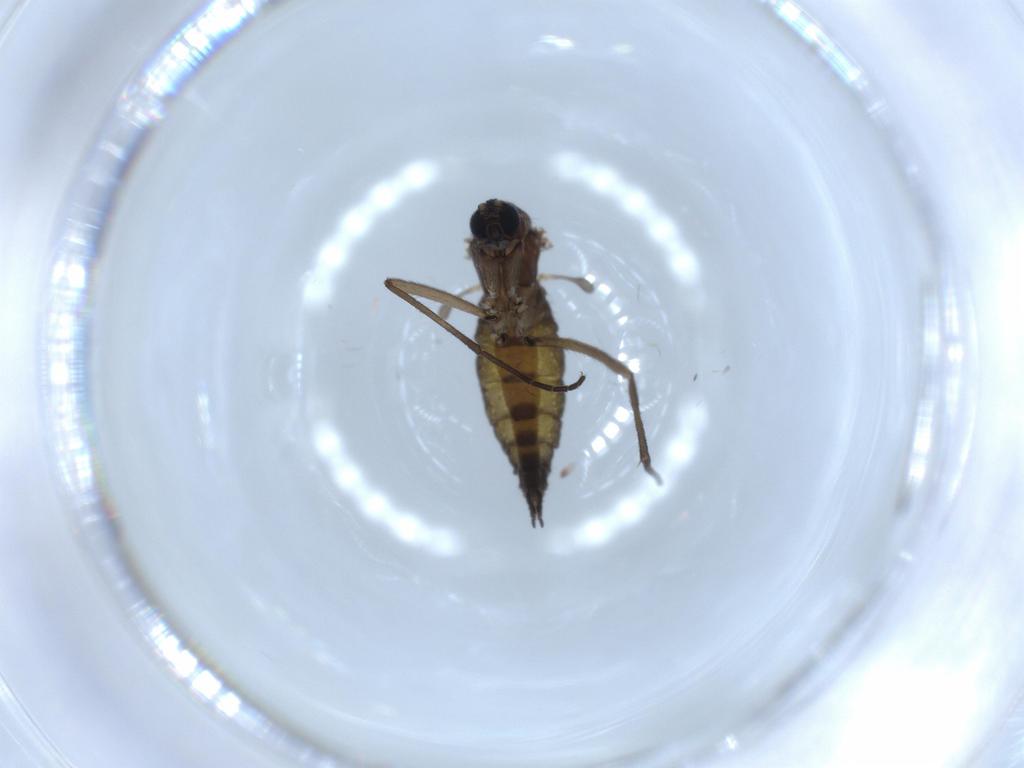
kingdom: Animalia
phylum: Arthropoda
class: Insecta
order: Diptera
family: Sciaridae
